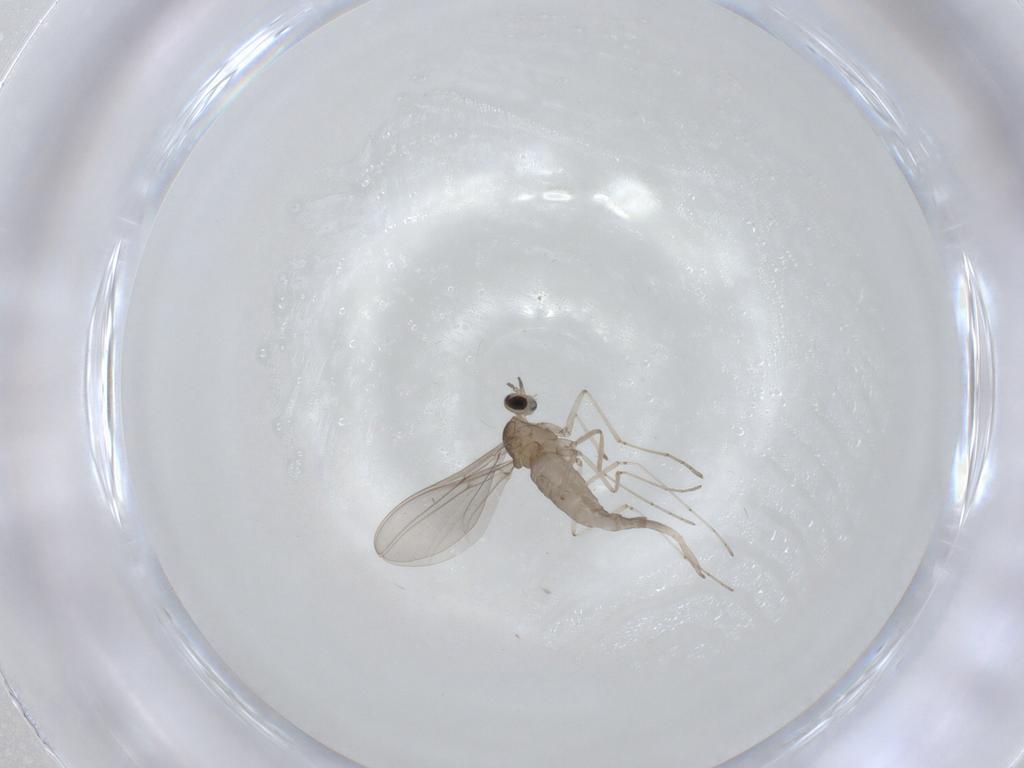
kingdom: Animalia
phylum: Arthropoda
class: Insecta
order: Diptera
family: Cecidomyiidae
